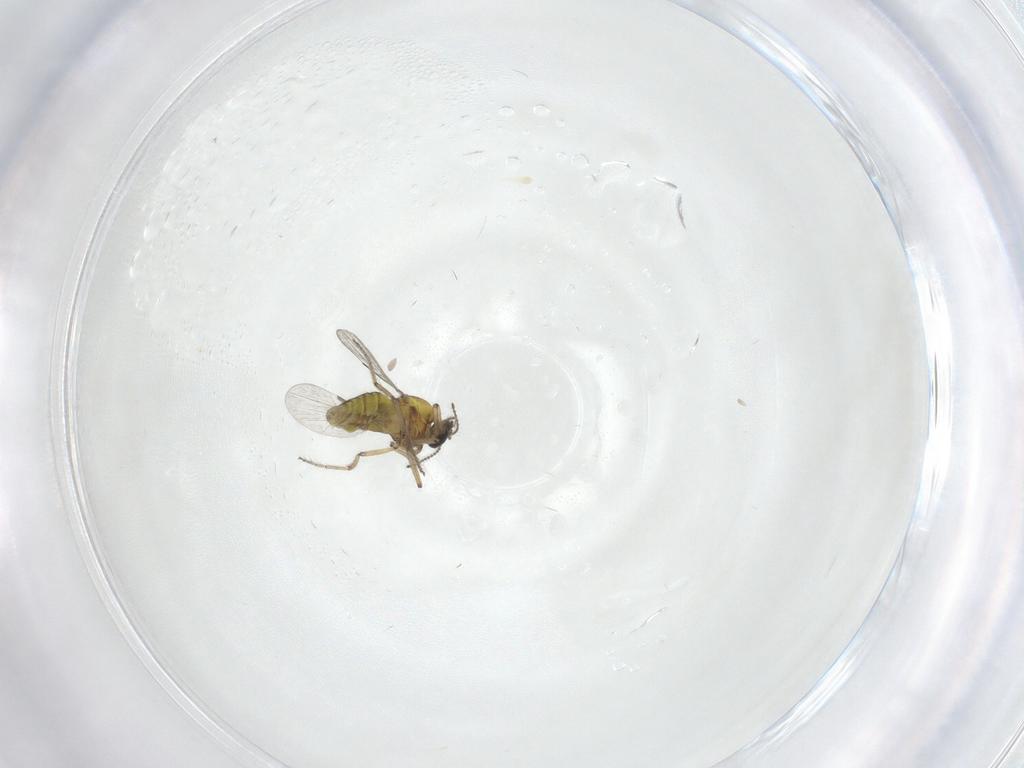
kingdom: Animalia
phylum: Arthropoda
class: Insecta
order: Diptera
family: Ceratopogonidae
